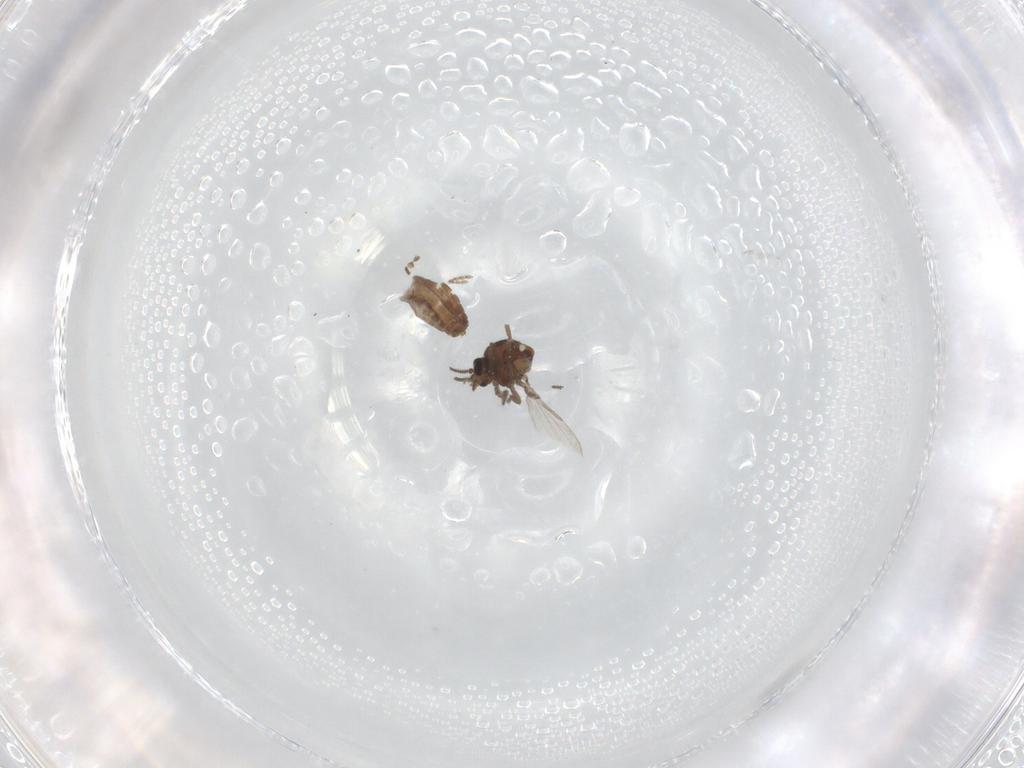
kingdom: Animalia
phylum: Arthropoda
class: Insecta
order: Diptera
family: Ceratopogonidae
